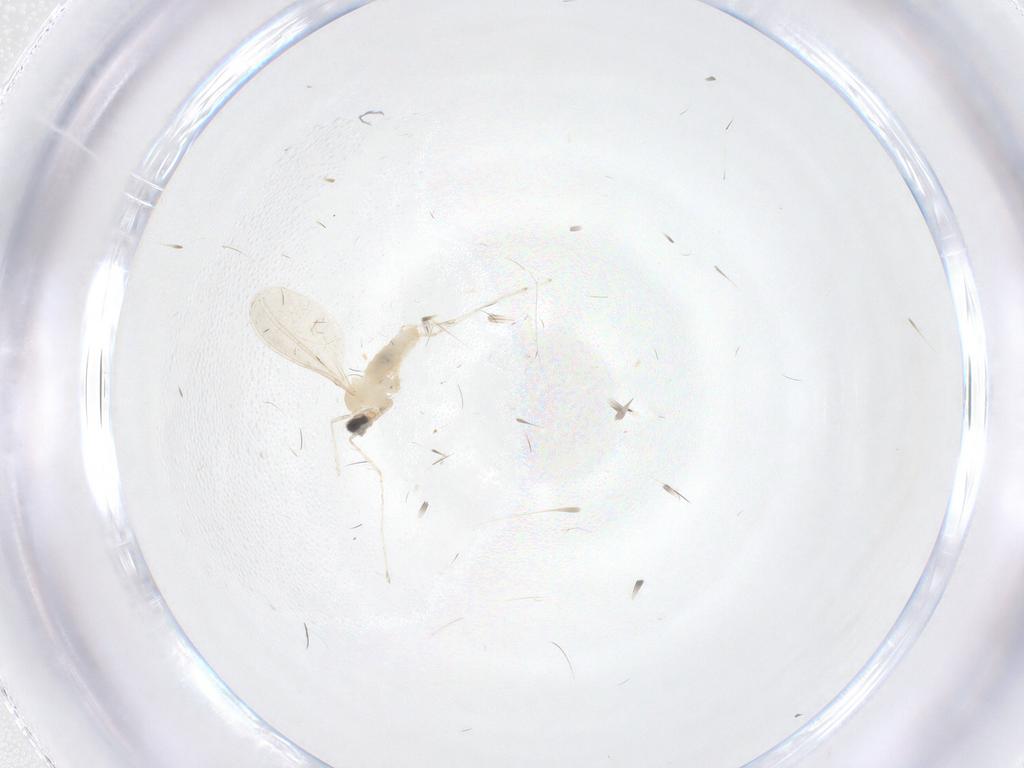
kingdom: Animalia
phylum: Arthropoda
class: Insecta
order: Diptera
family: Cecidomyiidae
